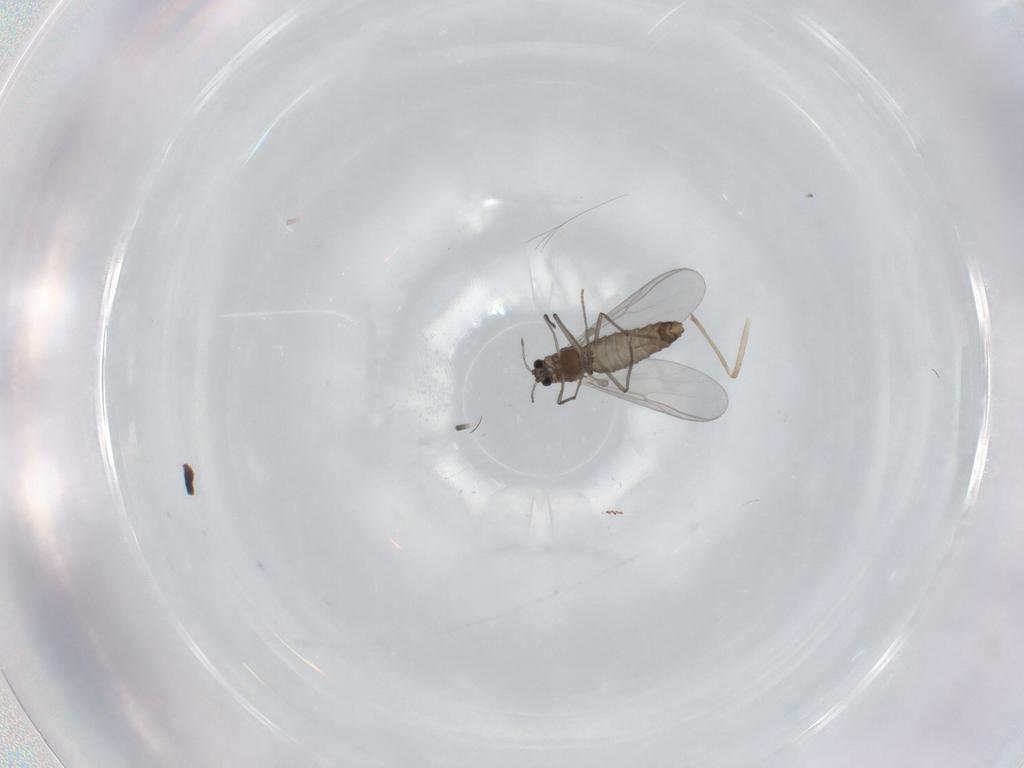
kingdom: Animalia
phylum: Arthropoda
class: Insecta
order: Diptera
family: Chironomidae
